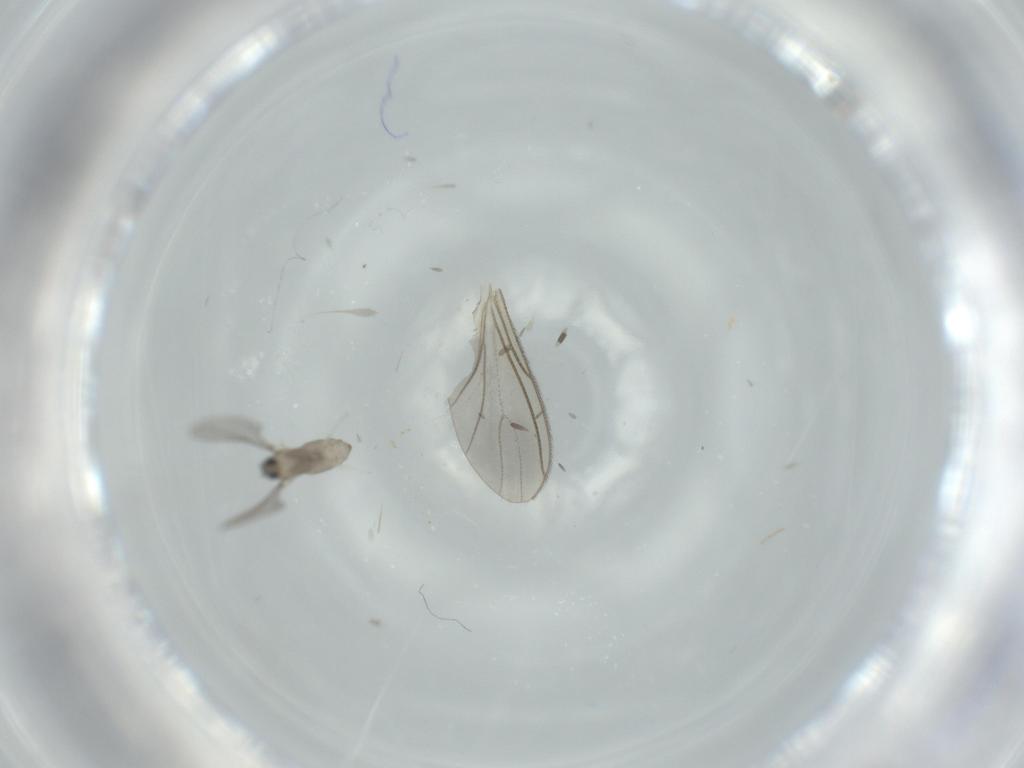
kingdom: Animalia
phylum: Arthropoda
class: Insecta
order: Diptera
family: Cecidomyiidae
